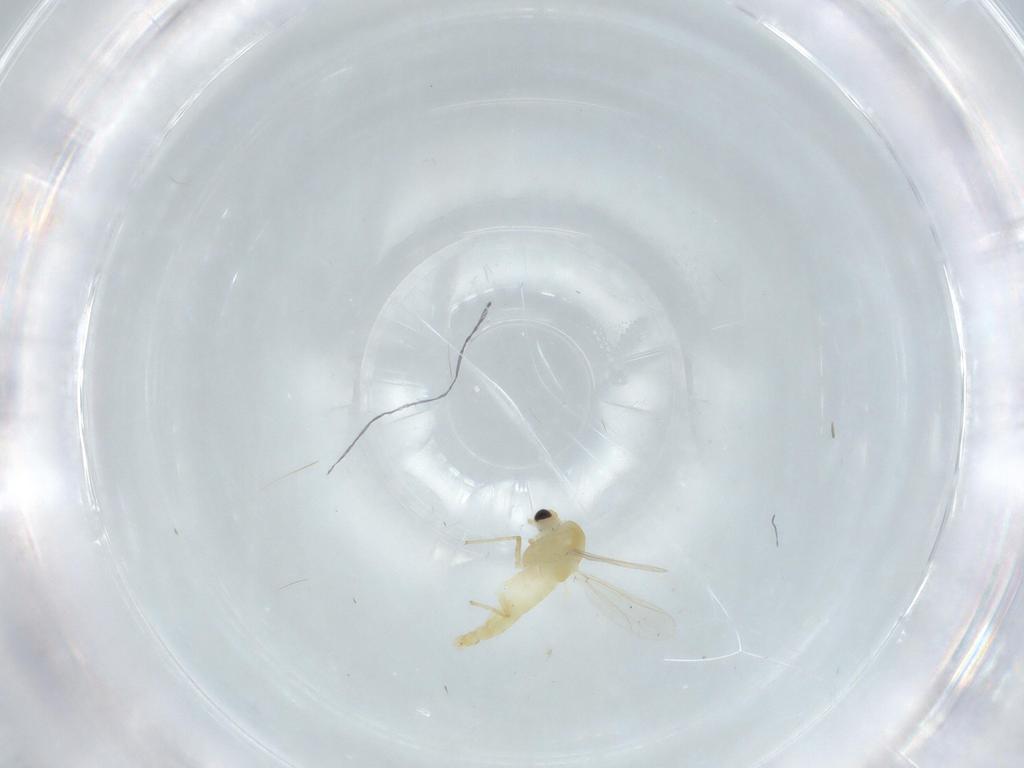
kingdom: Animalia
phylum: Arthropoda
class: Insecta
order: Diptera
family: Chironomidae
